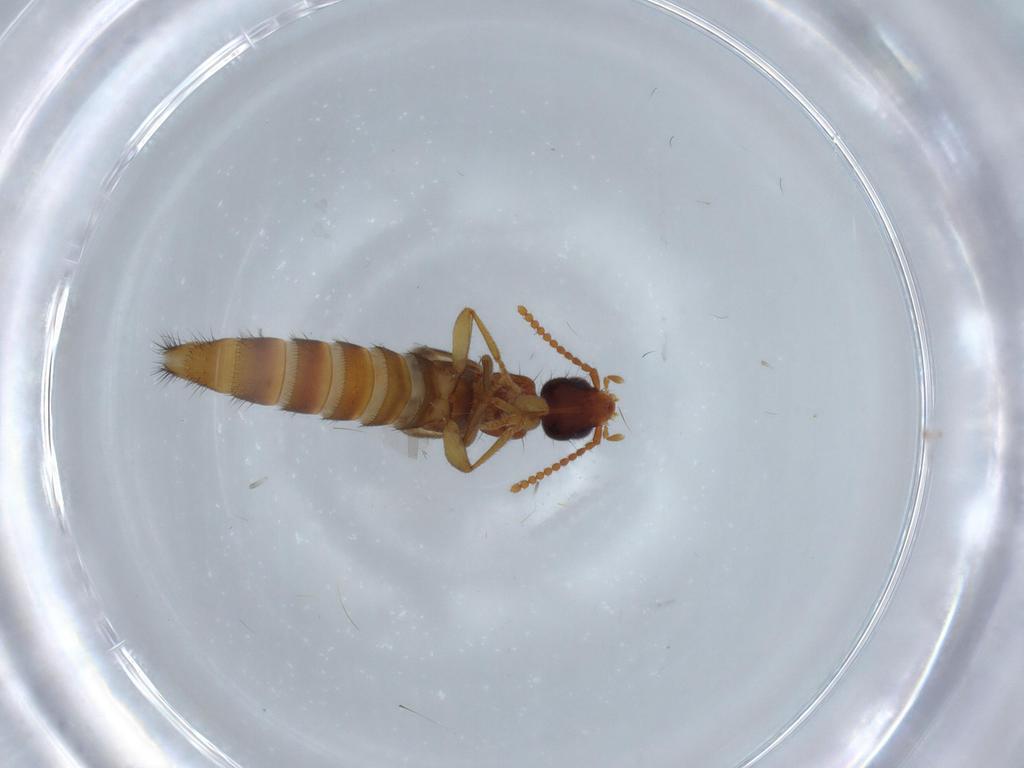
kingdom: Animalia
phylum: Arthropoda
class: Insecta
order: Coleoptera
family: Staphylinidae
